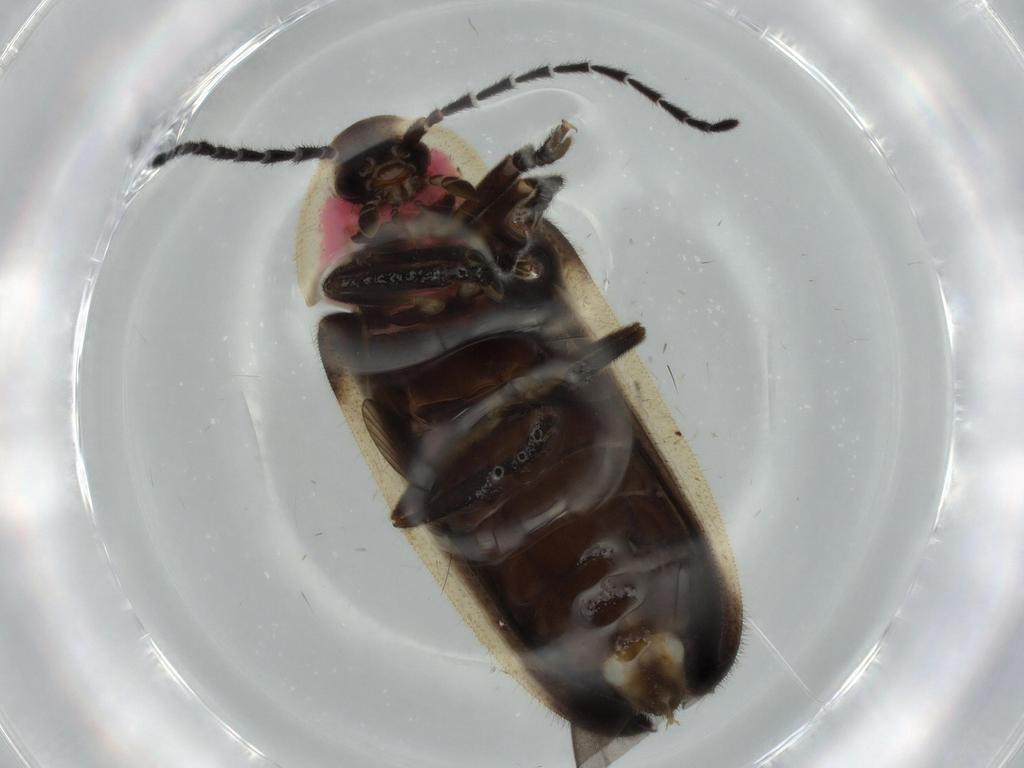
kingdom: Animalia
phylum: Arthropoda
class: Insecta
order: Coleoptera
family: Lampyridae
